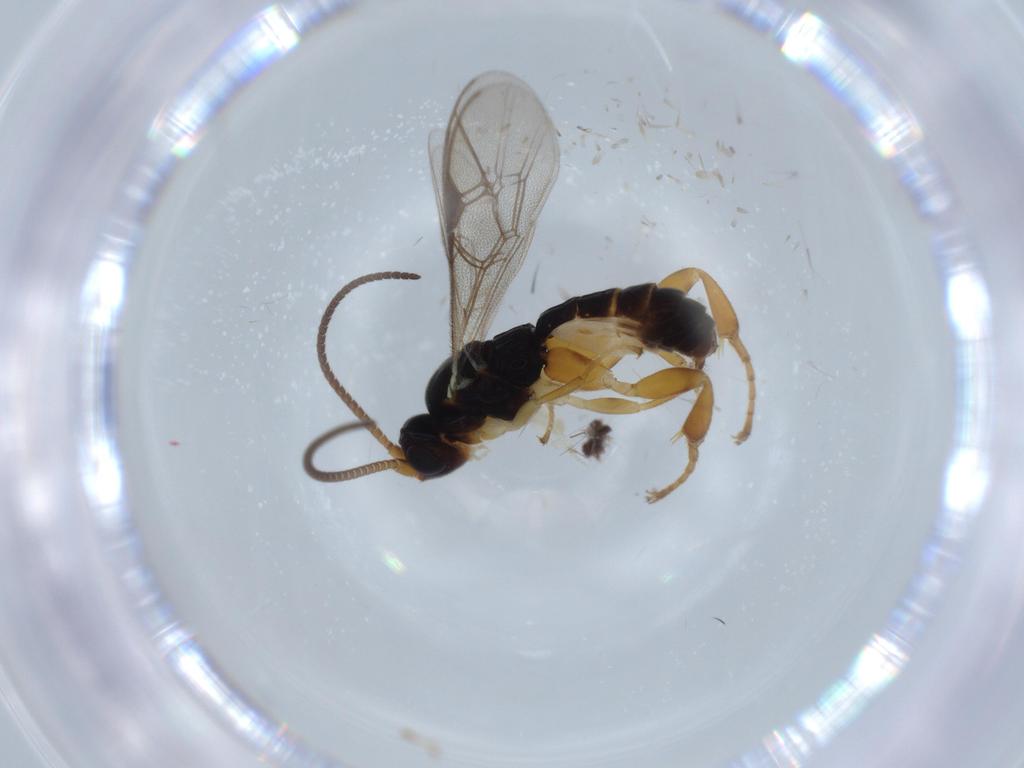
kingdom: Animalia
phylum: Arthropoda
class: Insecta
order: Hymenoptera
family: Ichneumonidae
